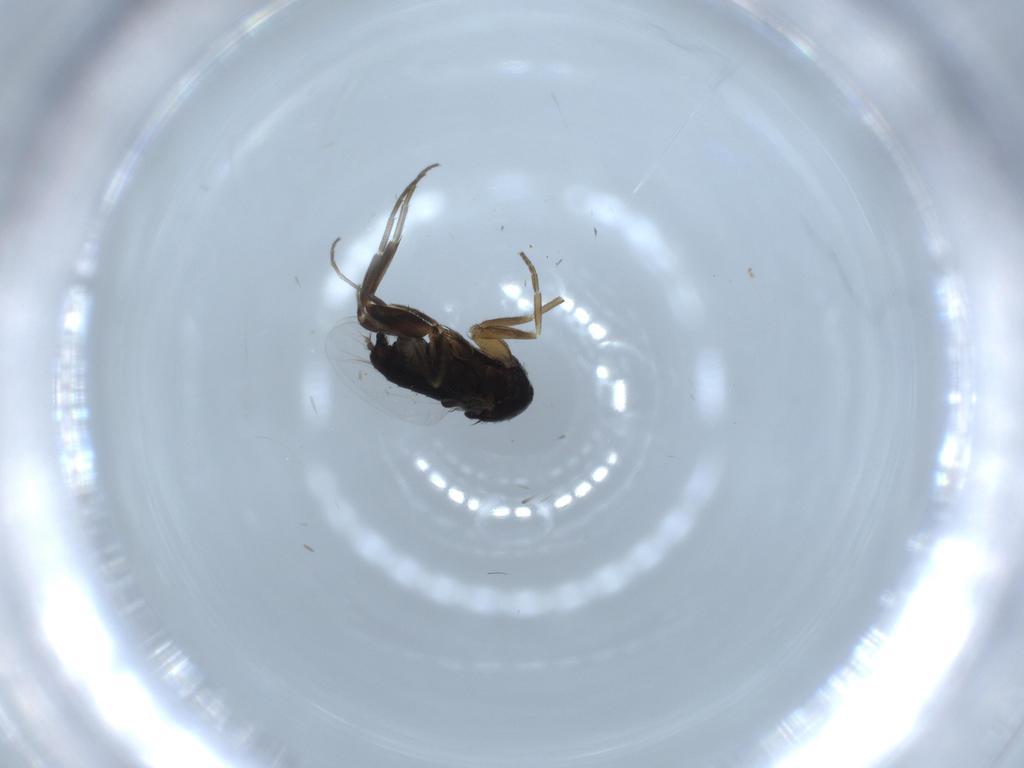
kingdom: Animalia
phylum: Arthropoda
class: Insecta
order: Diptera
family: Phoridae
